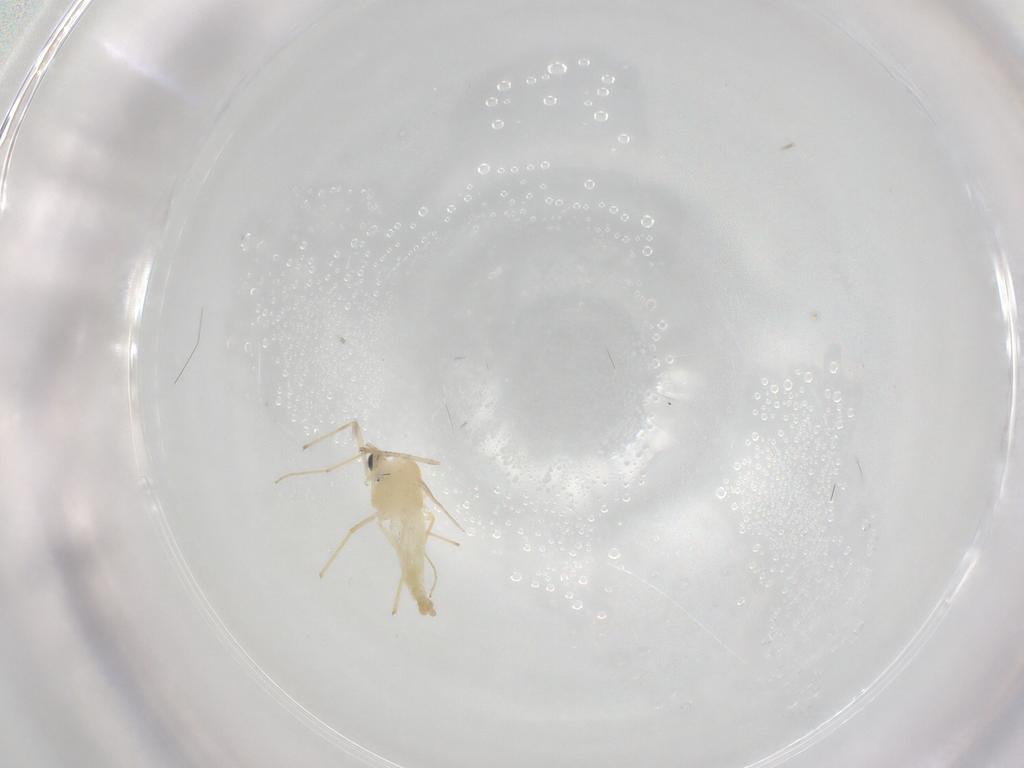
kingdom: Animalia
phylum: Arthropoda
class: Insecta
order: Diptera
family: Chironomidae
